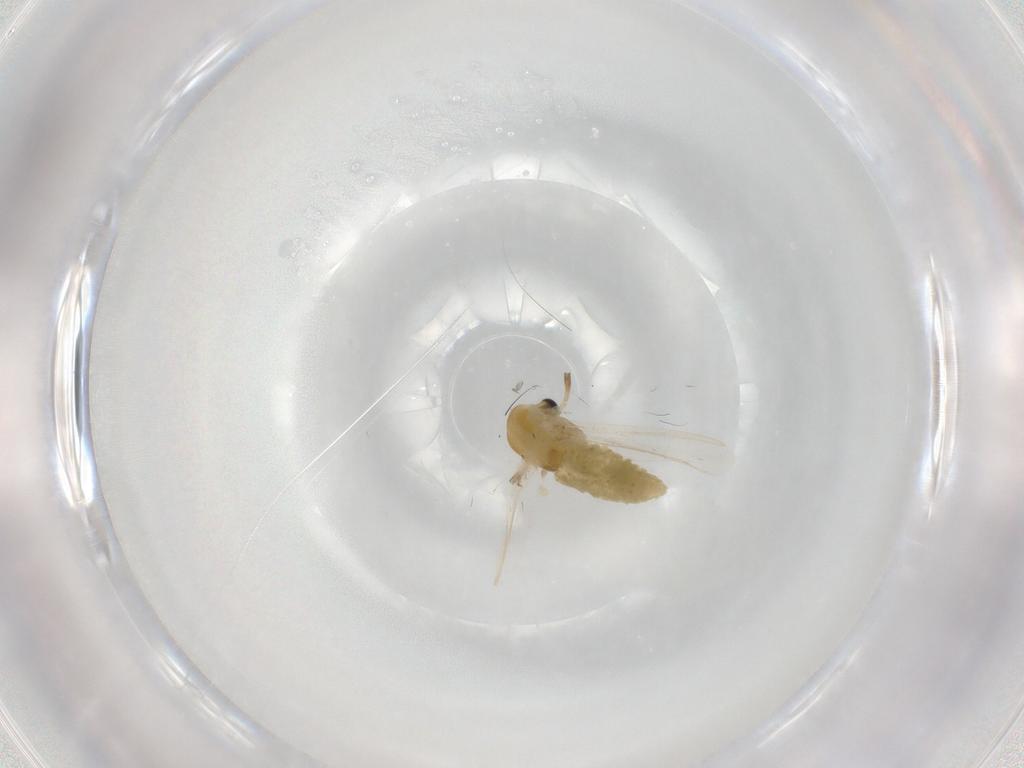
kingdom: Animalia
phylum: Arthropoda
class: Insecta
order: Diptera
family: Chironomidae
